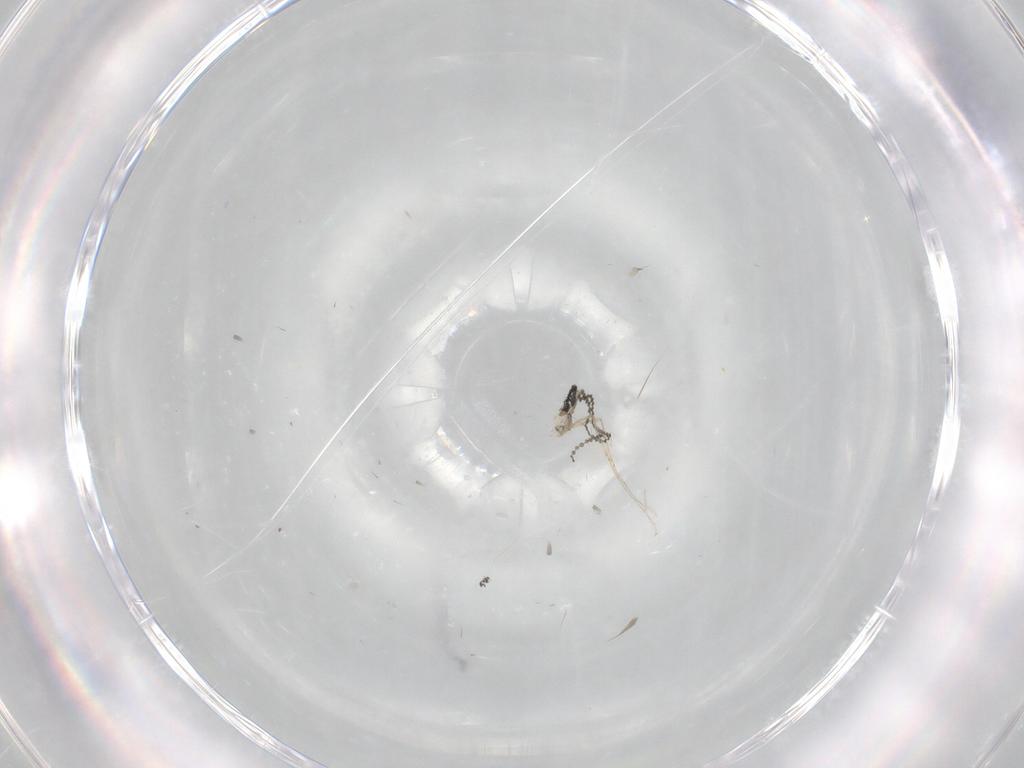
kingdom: Animalia
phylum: Arthropoda
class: Insecta
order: Diptera
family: Cecidomyiidae
